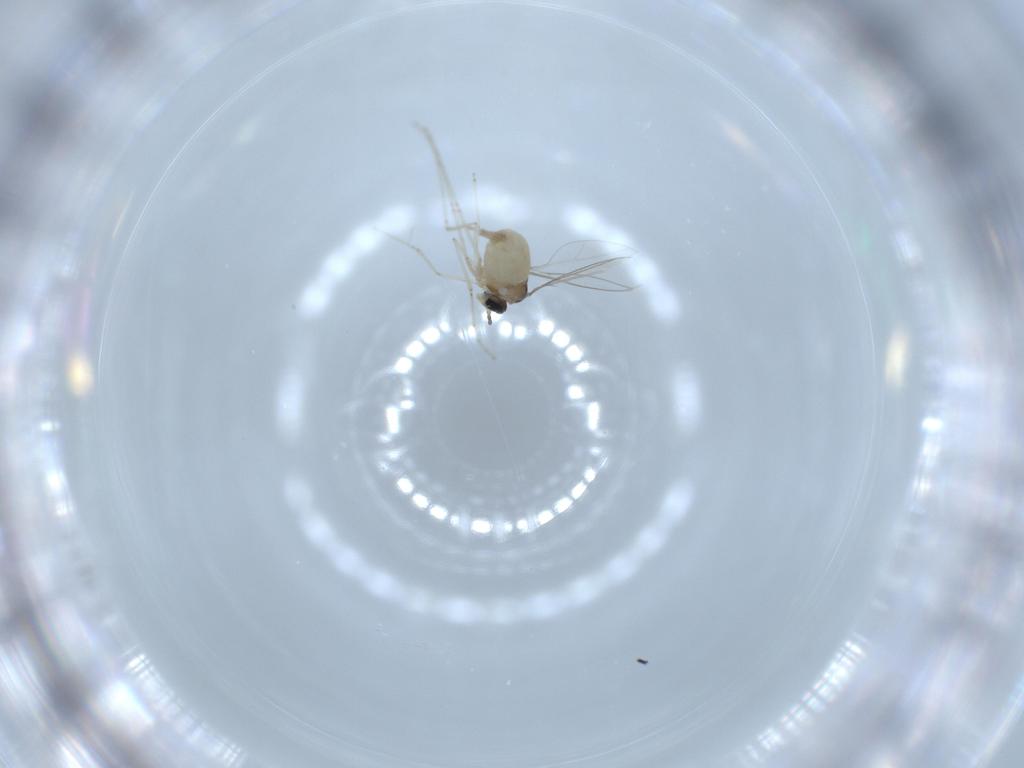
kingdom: Animalia
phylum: Arthropoda
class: Insecta
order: Diptera
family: Cecidomyiidae
